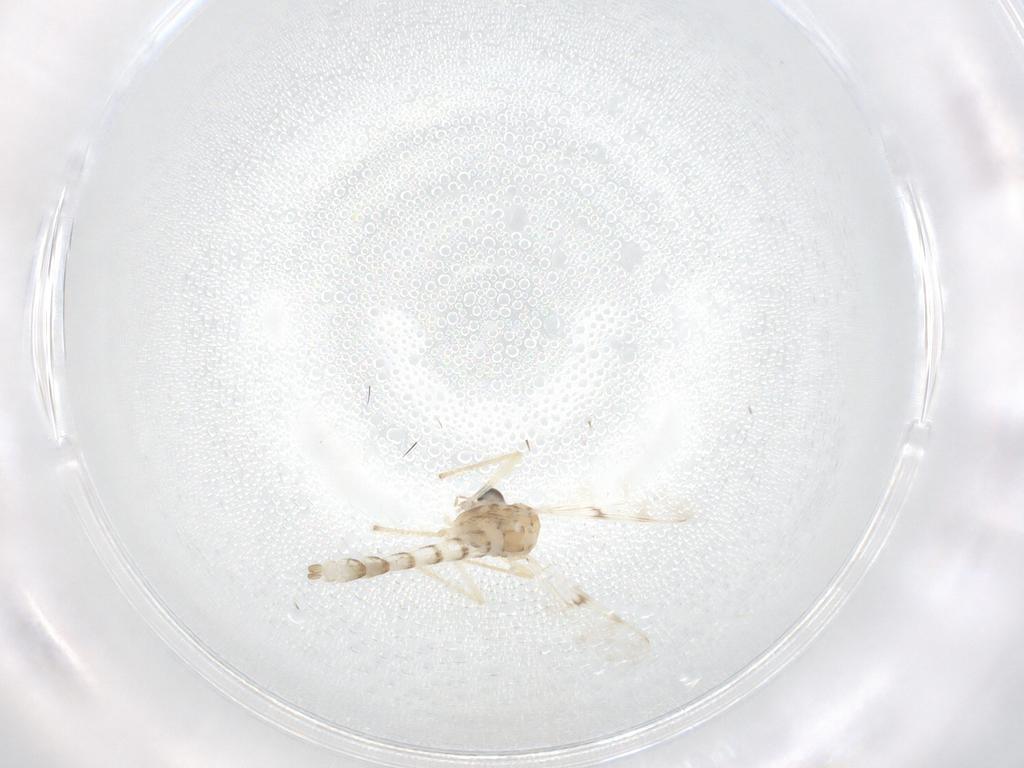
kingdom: Animalia
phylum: Arthropoda
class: Insecta
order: Diptera
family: Chironomidae
